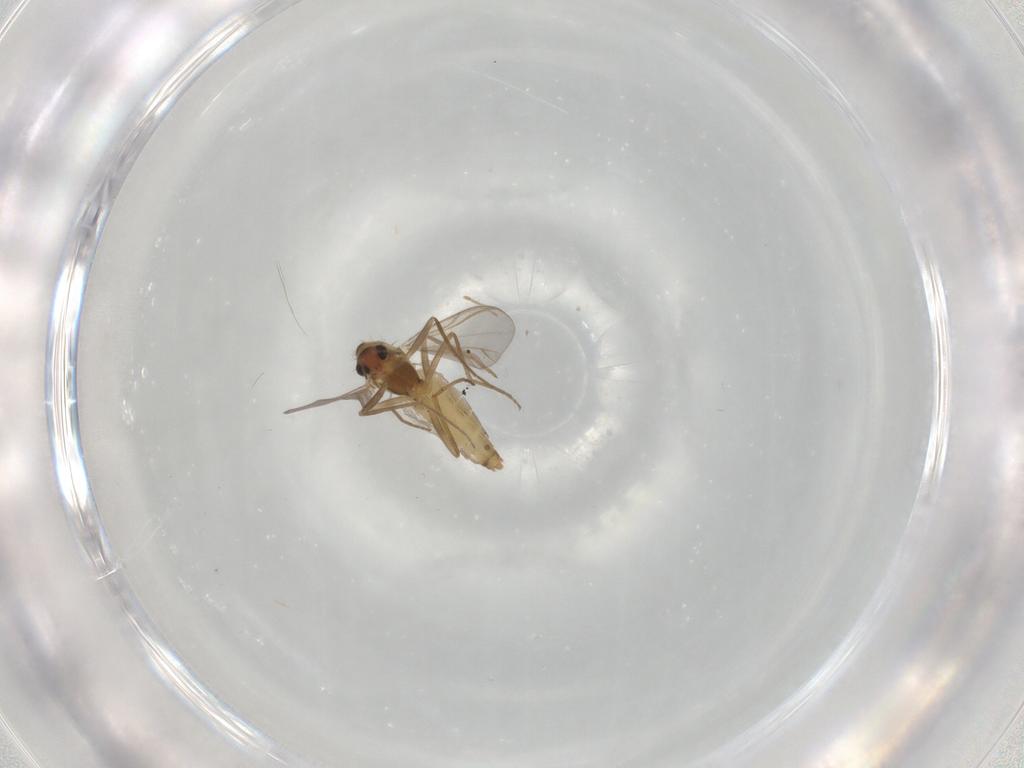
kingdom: Animalia
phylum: Arthropoda
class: Insecta
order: Diptera
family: Chironomidae
